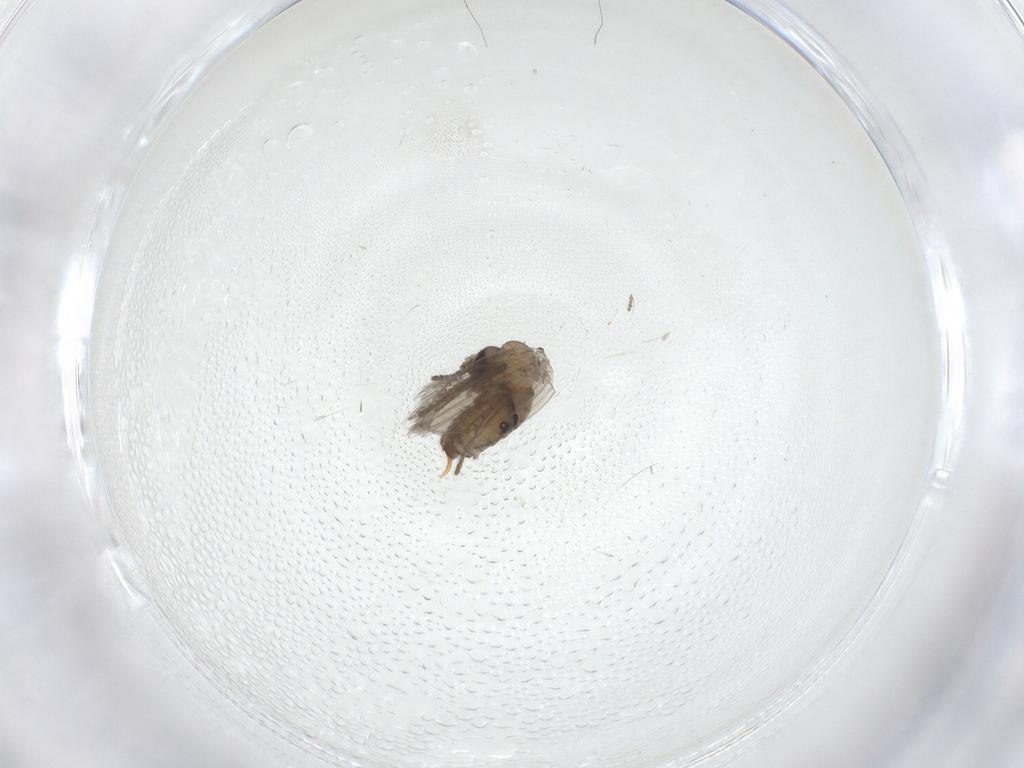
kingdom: Animalia
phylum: Arthropoda
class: Insecta
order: Diptera
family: Psychodidae
